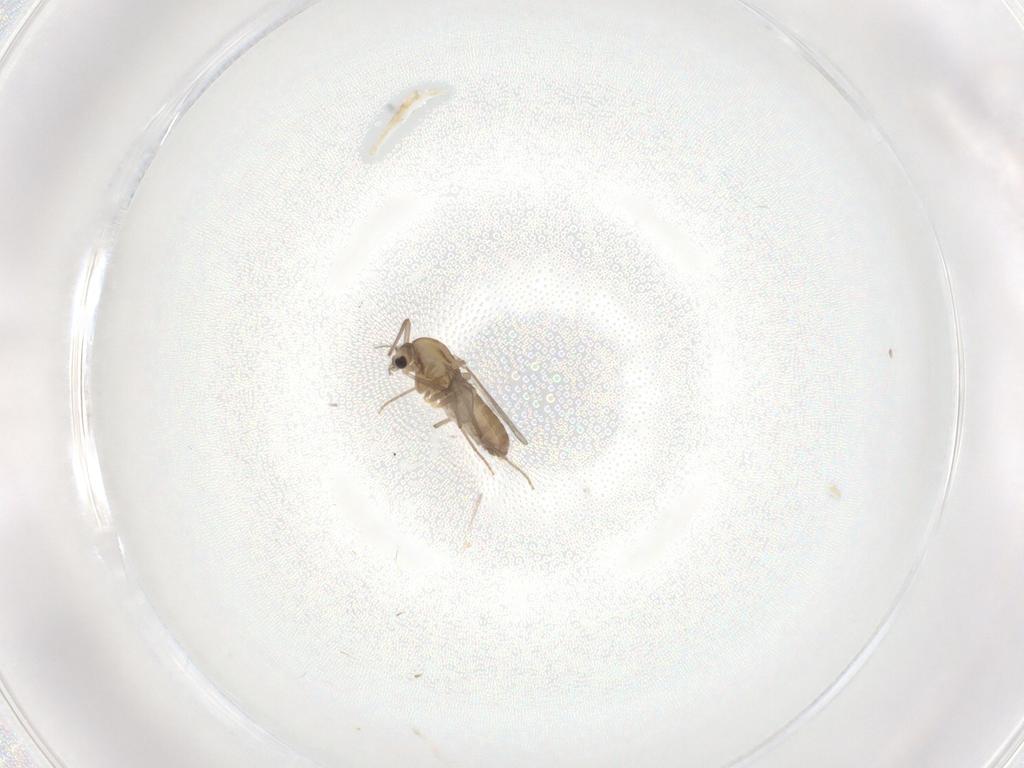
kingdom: Animalia
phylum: Arthropoda
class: Insecta
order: Diptera
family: Chironomidae
